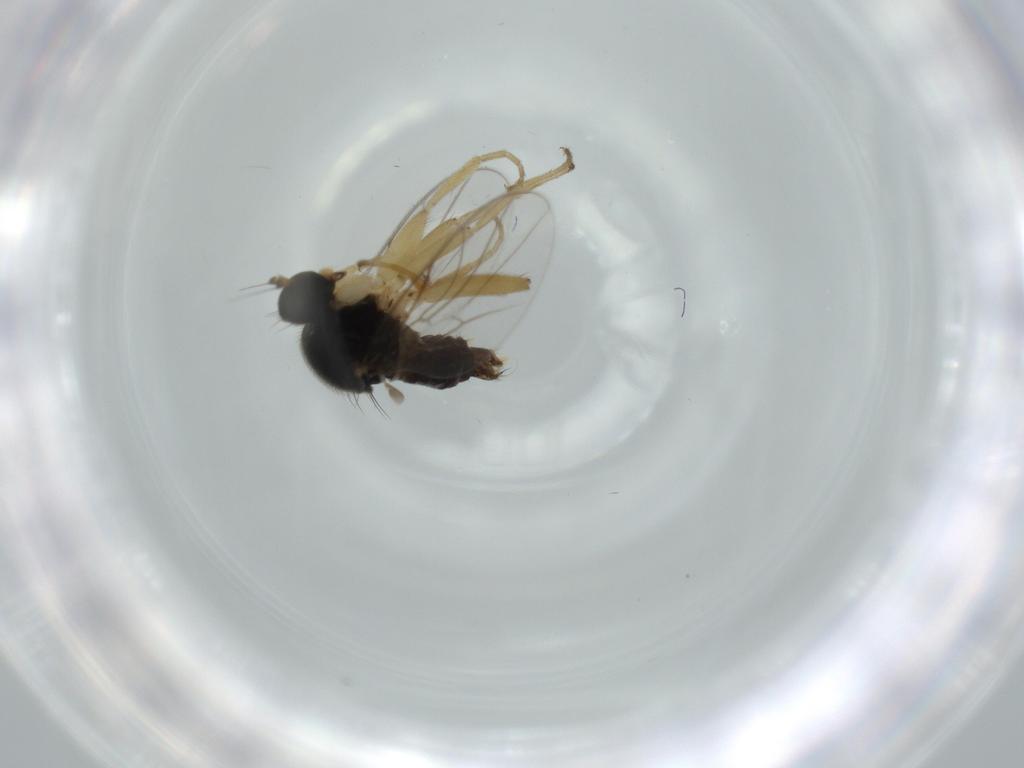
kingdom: Animalia
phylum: Arthropoda
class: Insecta
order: Diptera
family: Hybotidae
